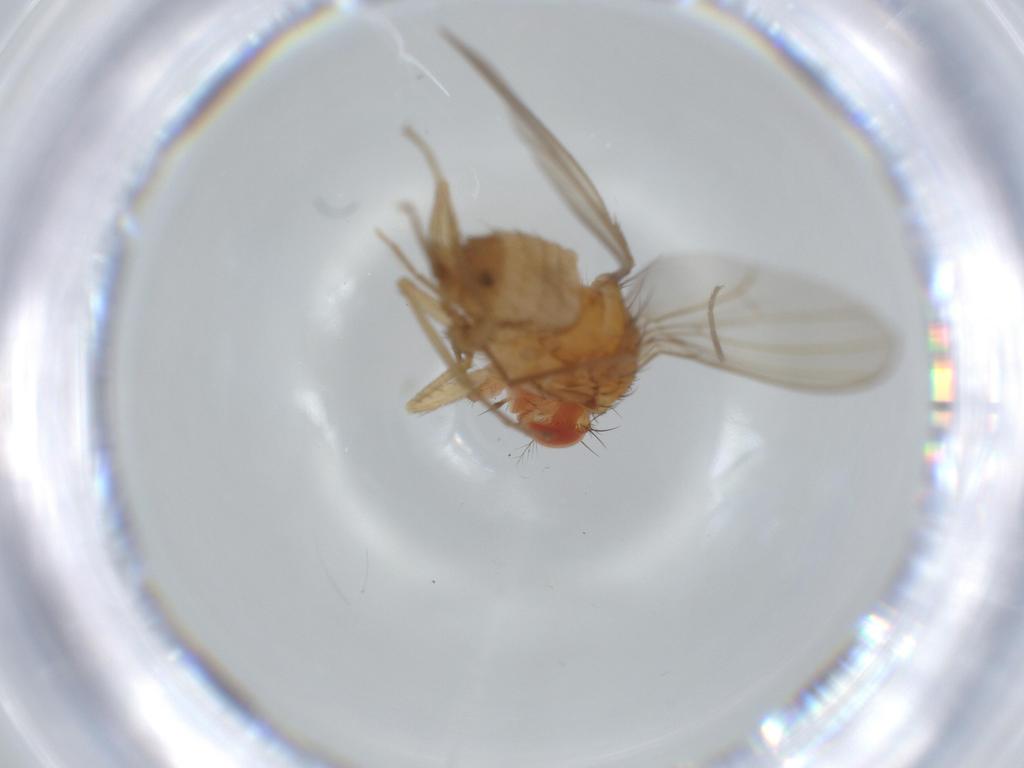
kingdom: Animalia
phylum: Arthropoda
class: Insecta
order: Diptera
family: Drosophilidae
